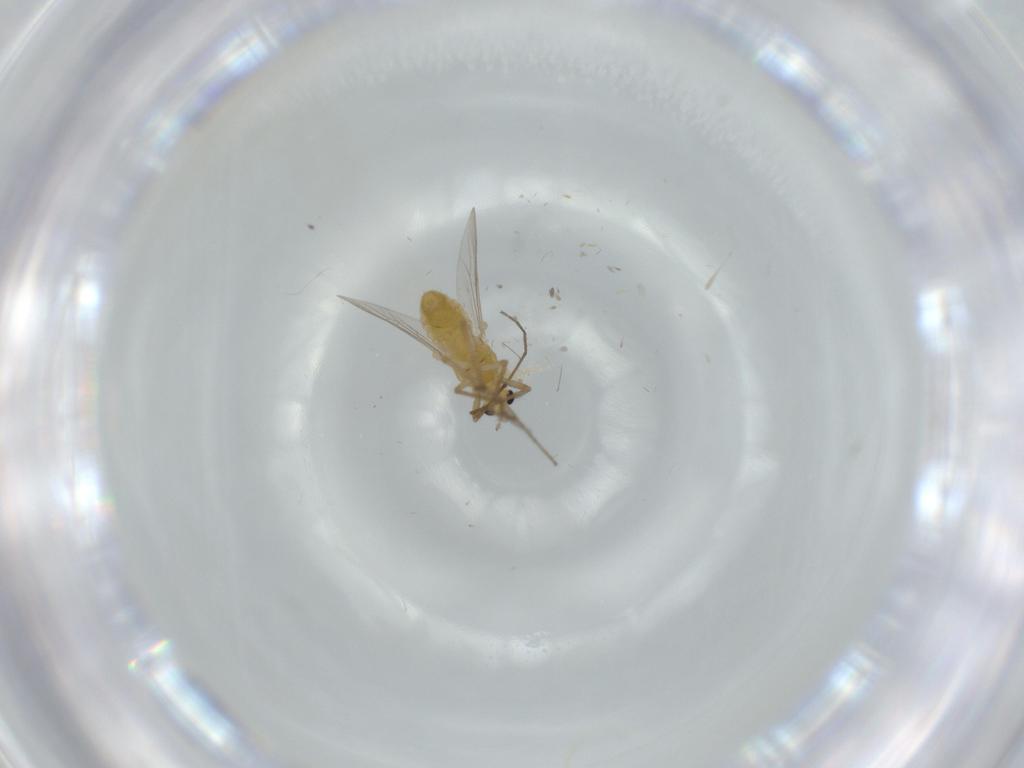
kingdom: Animalia
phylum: Arthropoda
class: Insecta
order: Diptera
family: Chironomidae
